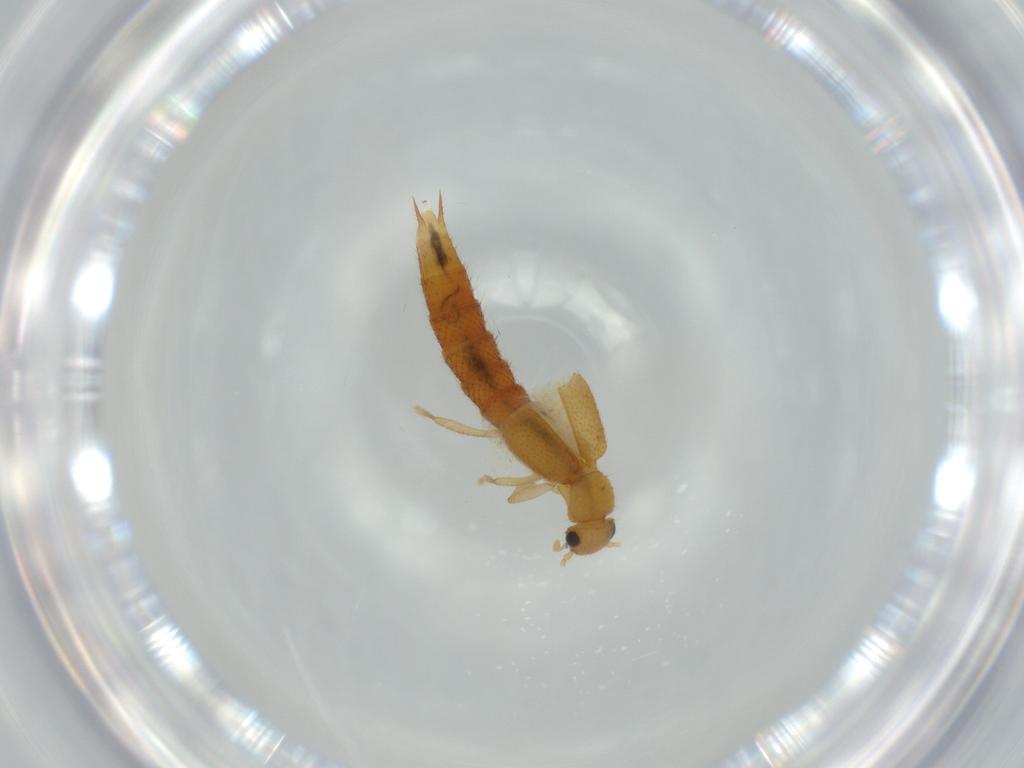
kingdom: Animalia
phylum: Arthropoda
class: Insecta
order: Coleoptera
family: Staphylinidae
